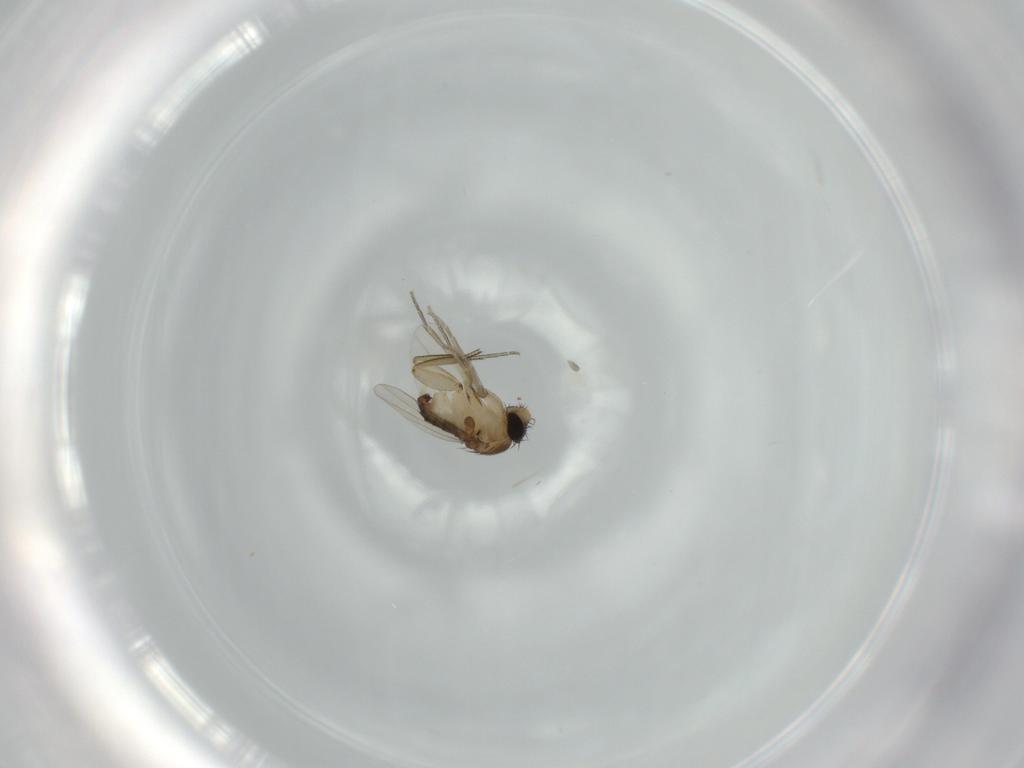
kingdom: Animalia
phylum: Arthropoda
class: Insecta
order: Diptera
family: Phoridae
